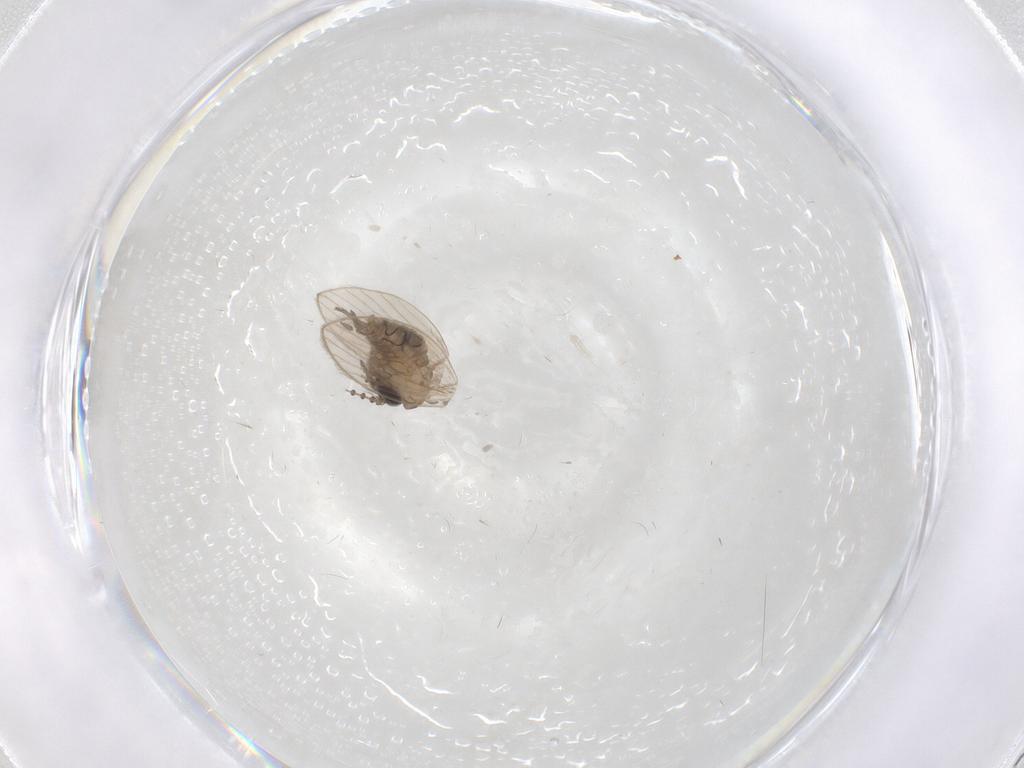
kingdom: Animalia
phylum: Arthropoda
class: Insecta
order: Diptera
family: Psychodidae
